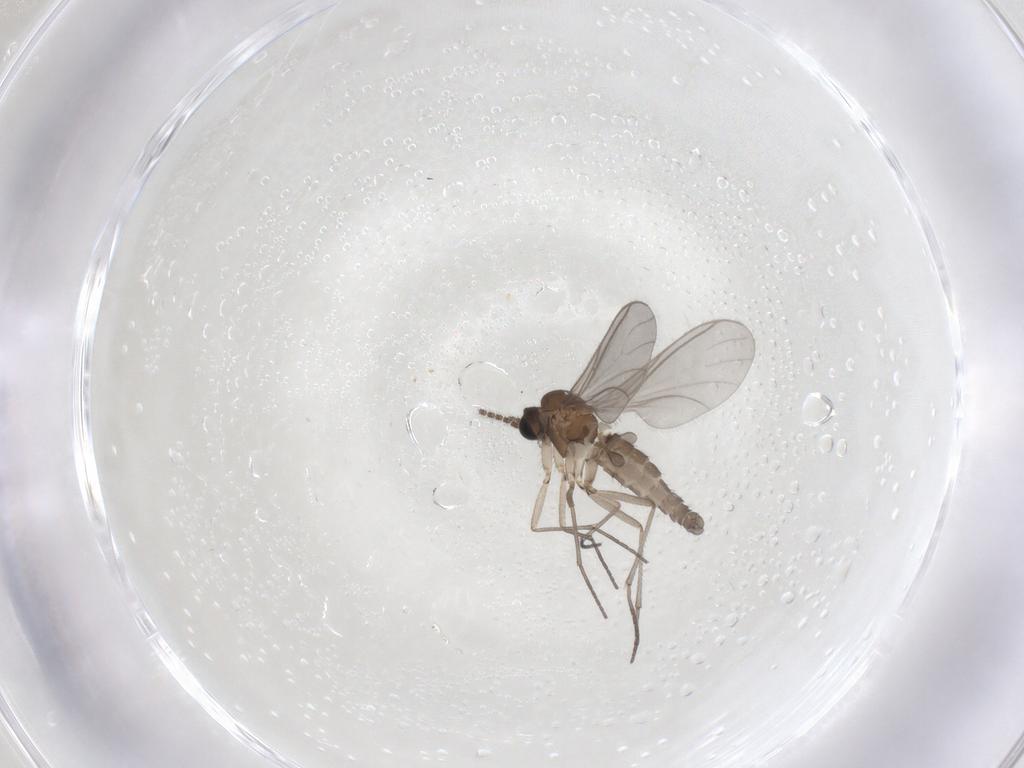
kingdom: Animalia
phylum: Arthropoda
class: Insecta
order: Diptera
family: Sciaridae
